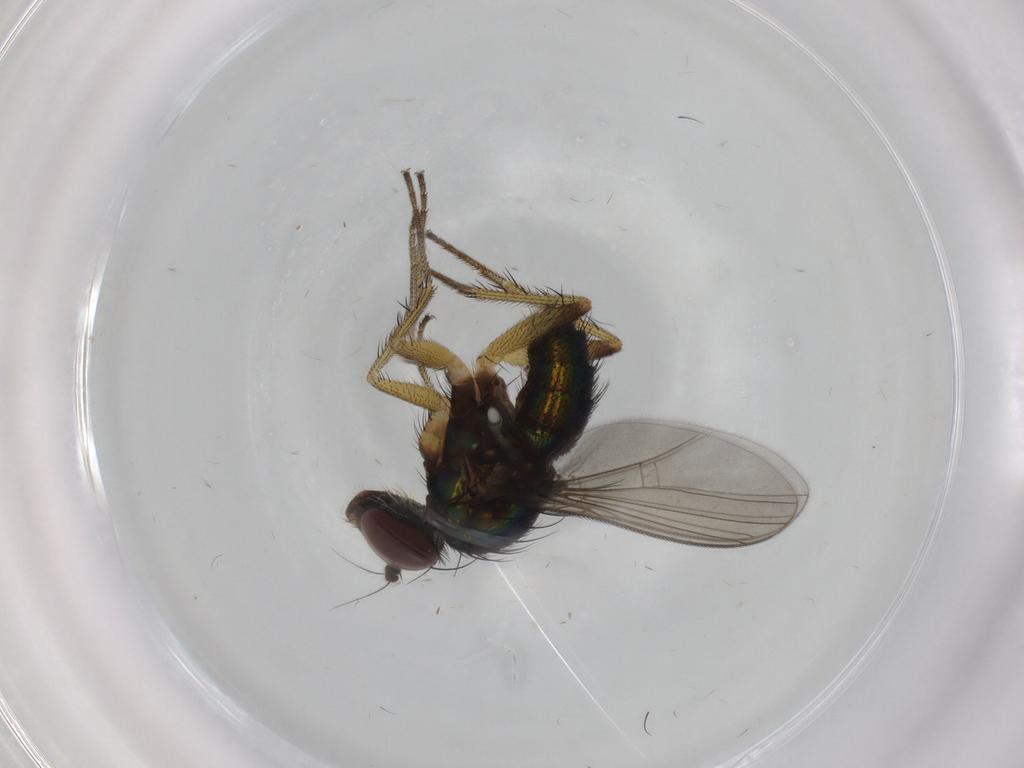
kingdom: Animalia
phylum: Arthropoda
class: Insecta
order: Diptera
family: Dolichopodidae
